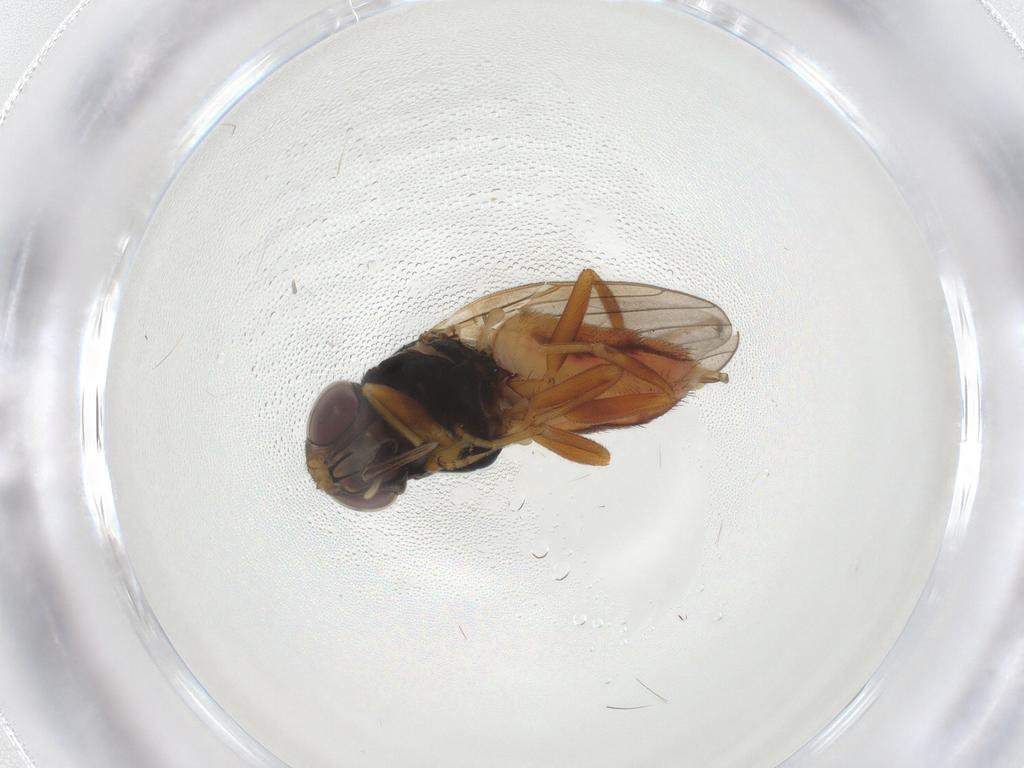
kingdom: Animalia
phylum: Arthropoda
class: Insecta
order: Diptera
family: Chloropidae
